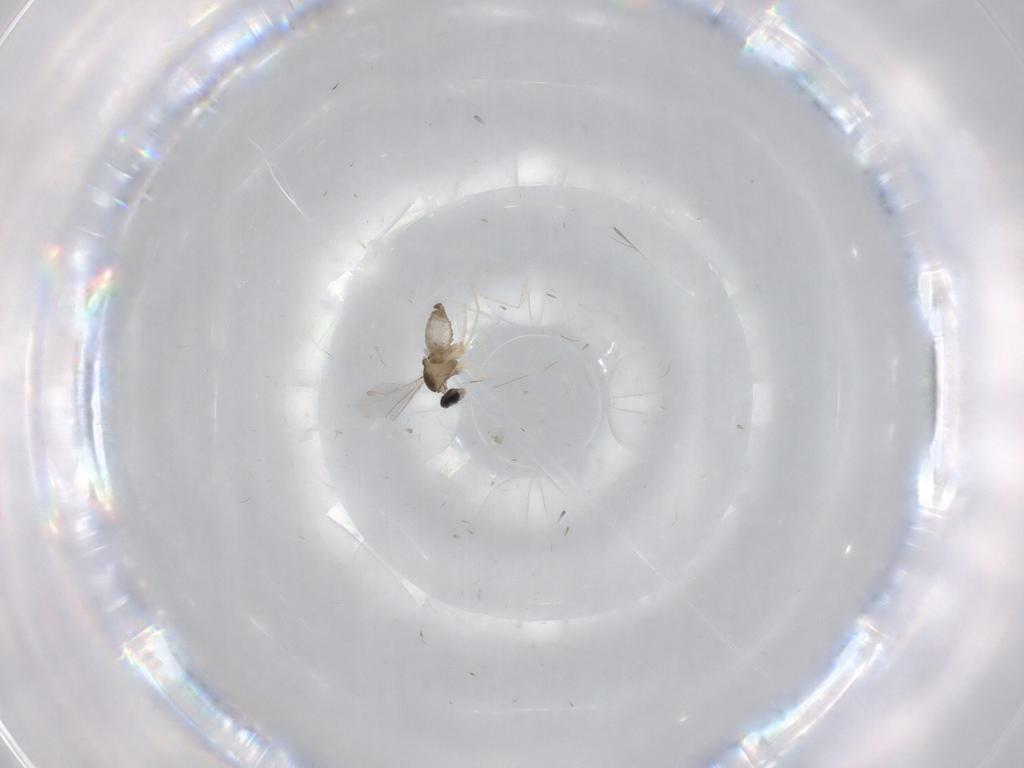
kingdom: Animalia
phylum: Arthropoda
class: Insecta
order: Diptera
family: Cecidomyiidae
